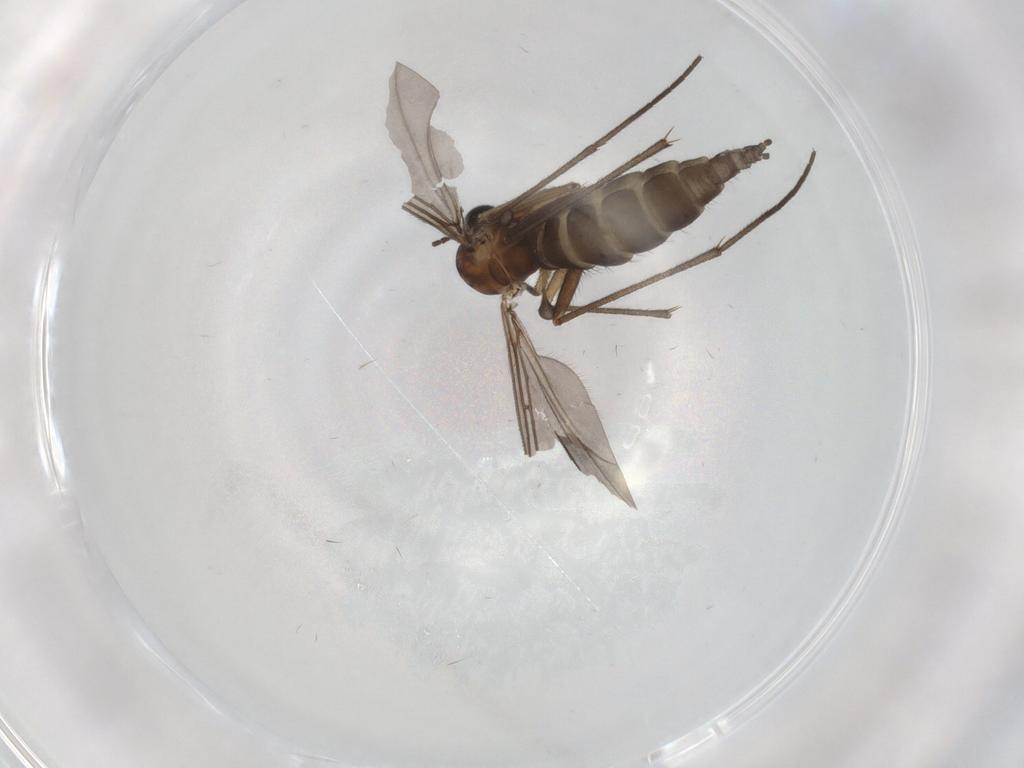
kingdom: Animalia
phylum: Arthropoda
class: Insecta
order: Diptera
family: Sciaridae
